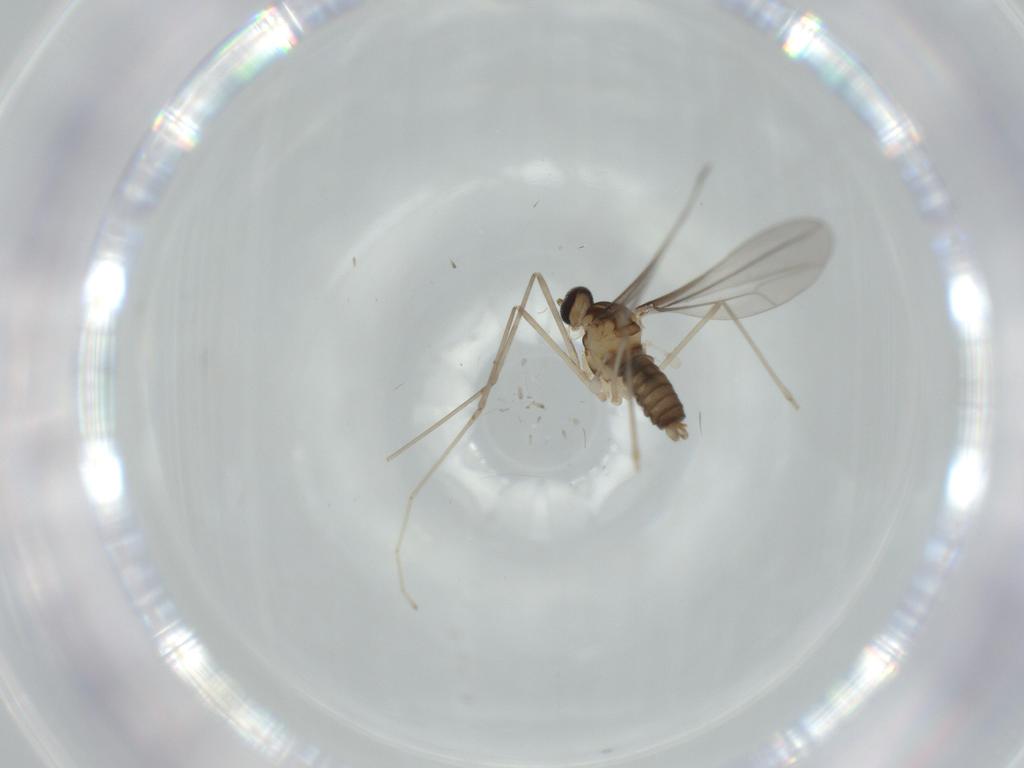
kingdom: Animalia
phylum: Arthropoda
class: Insecta
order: Diptera
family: Cecidomyiidae
